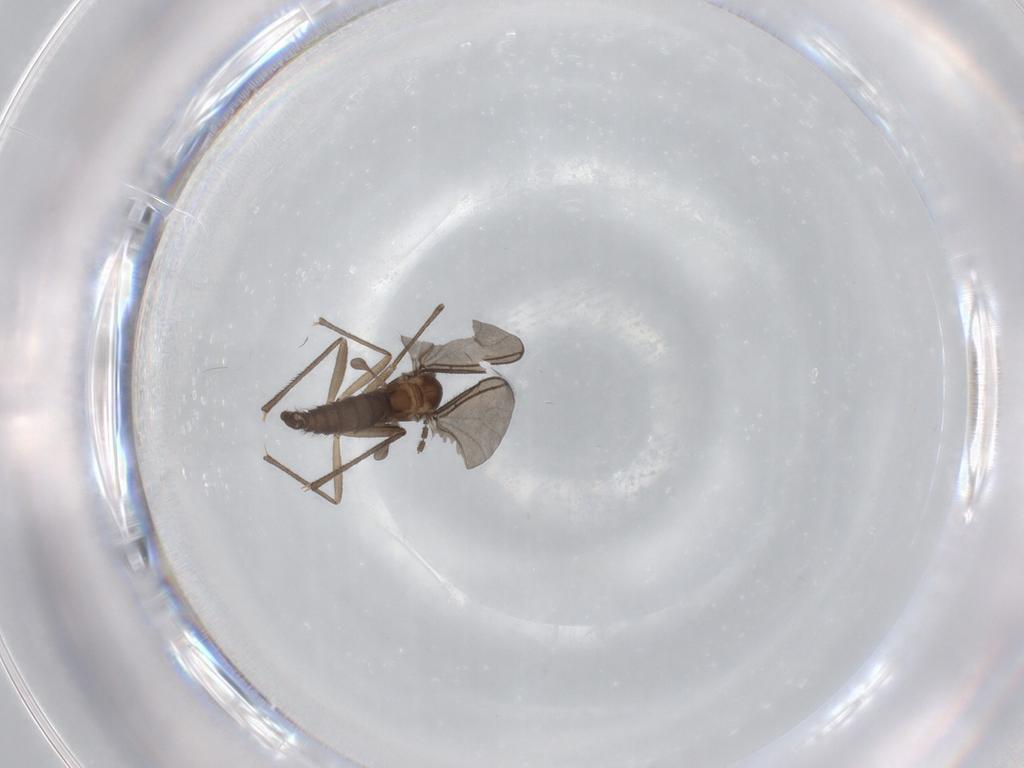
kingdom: Animalia
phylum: Arthropoda
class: Insecta
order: Diptera
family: Sciaridae
